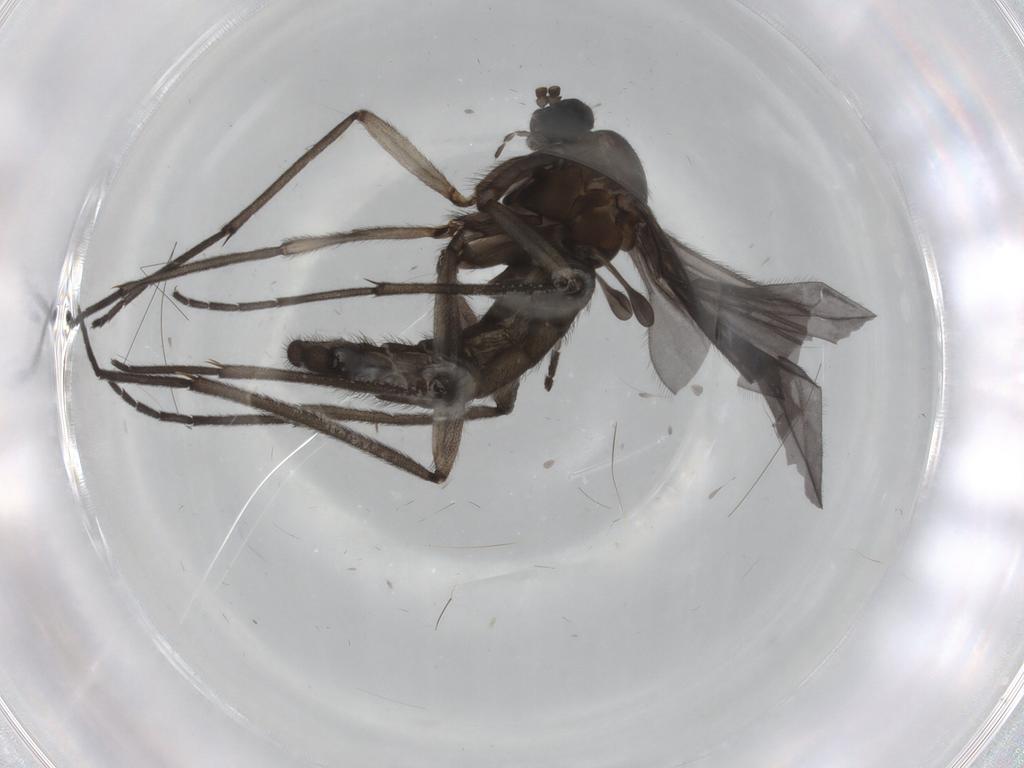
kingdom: Animalia
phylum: Arthropoda
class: Insecta
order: Diptera
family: Sciaridae
